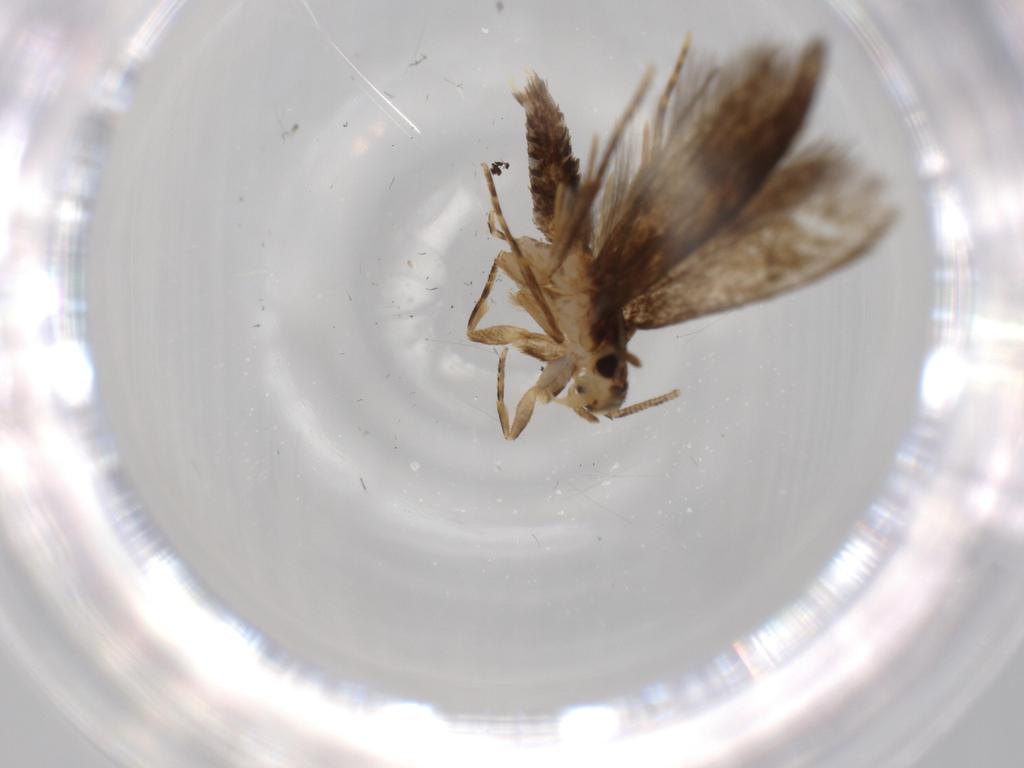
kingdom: Animalia
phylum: Arthropoda
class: Insecta
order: Lepidoptera
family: Tineidae
